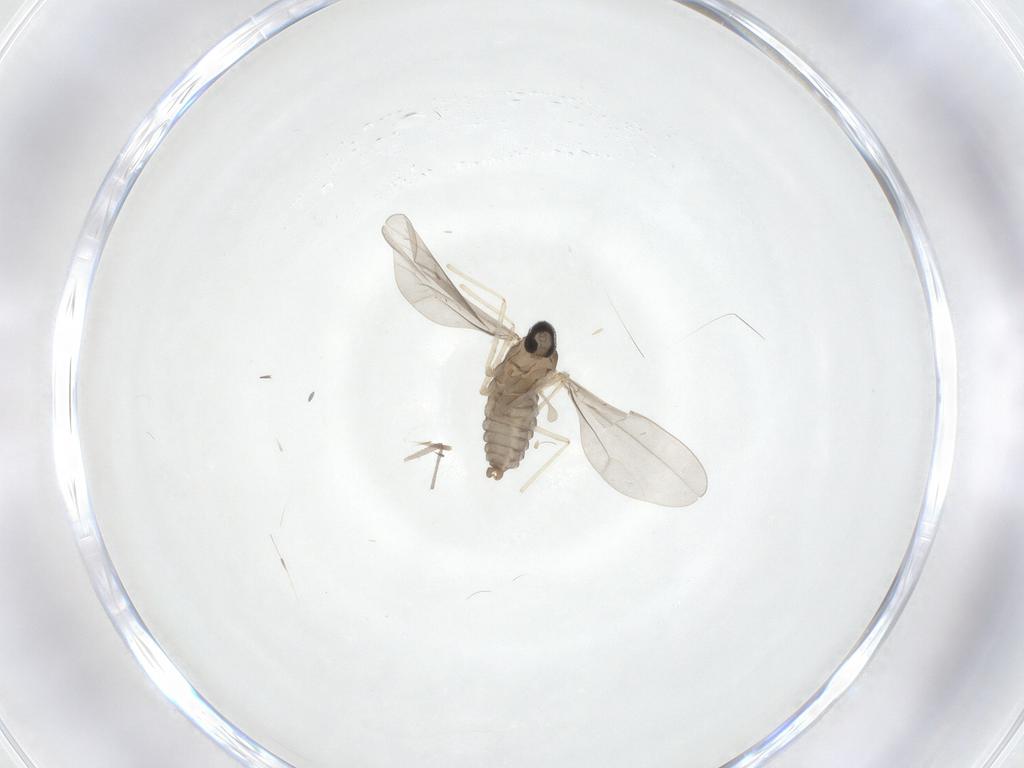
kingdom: Animalia
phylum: Arthropoda
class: Insecta
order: Diptera
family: Cecidomyiidae
